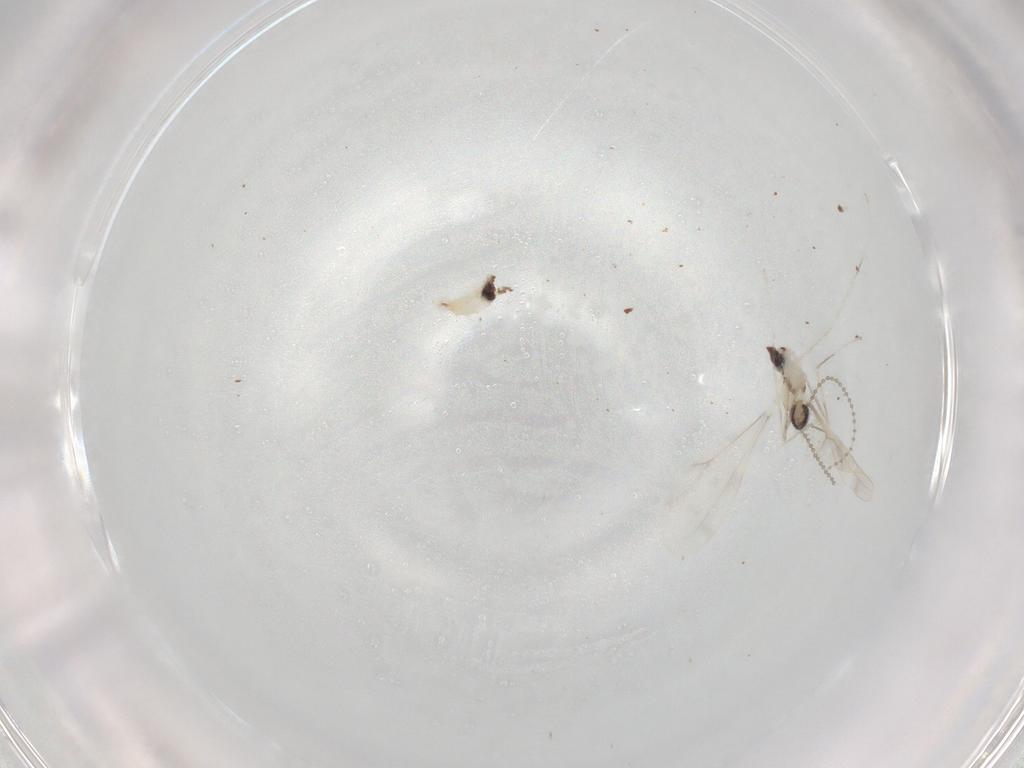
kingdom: Animalia
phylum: Arthropoda
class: Insecta
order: Diptera
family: Cecidomyiidae
